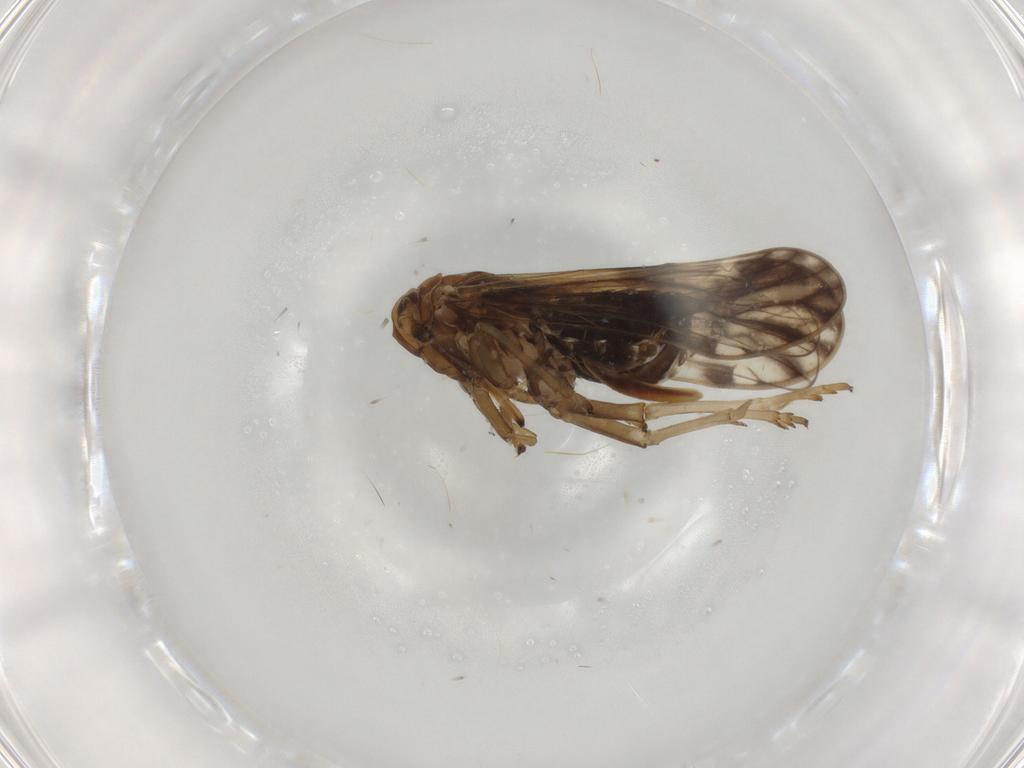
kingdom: Animalia
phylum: Arthropoda
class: Insecta
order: Hemiptera
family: Delphacidae
